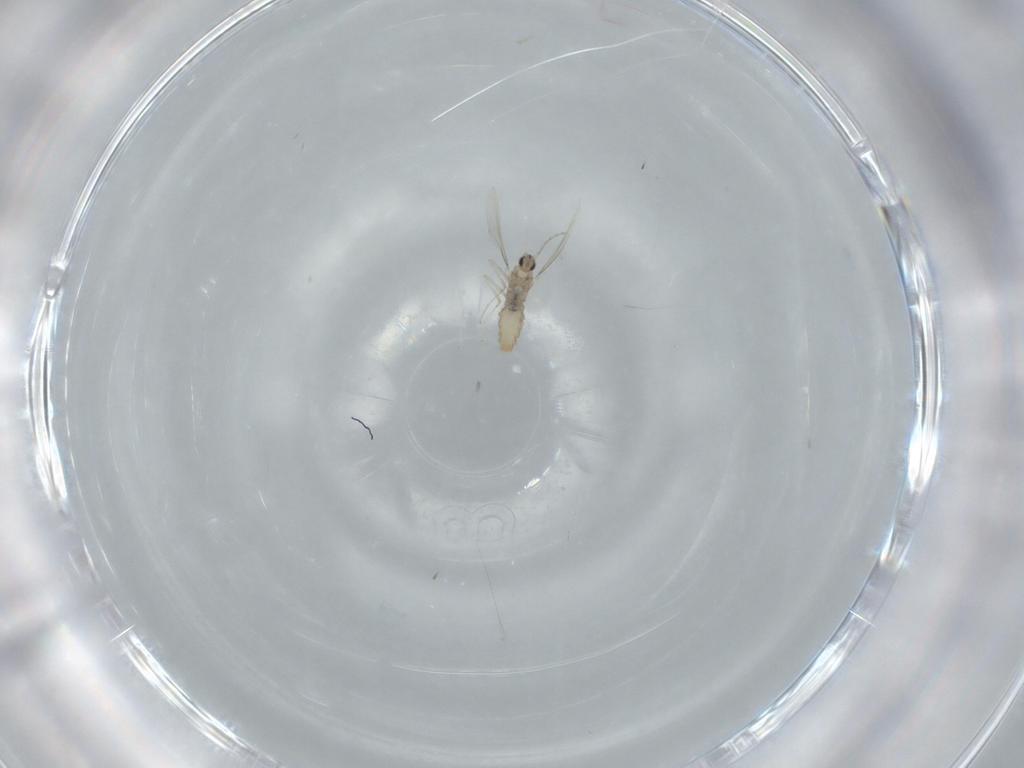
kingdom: Animalia
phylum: Arthropoda
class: Insecta
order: Diptera
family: Cecidomyiidae
